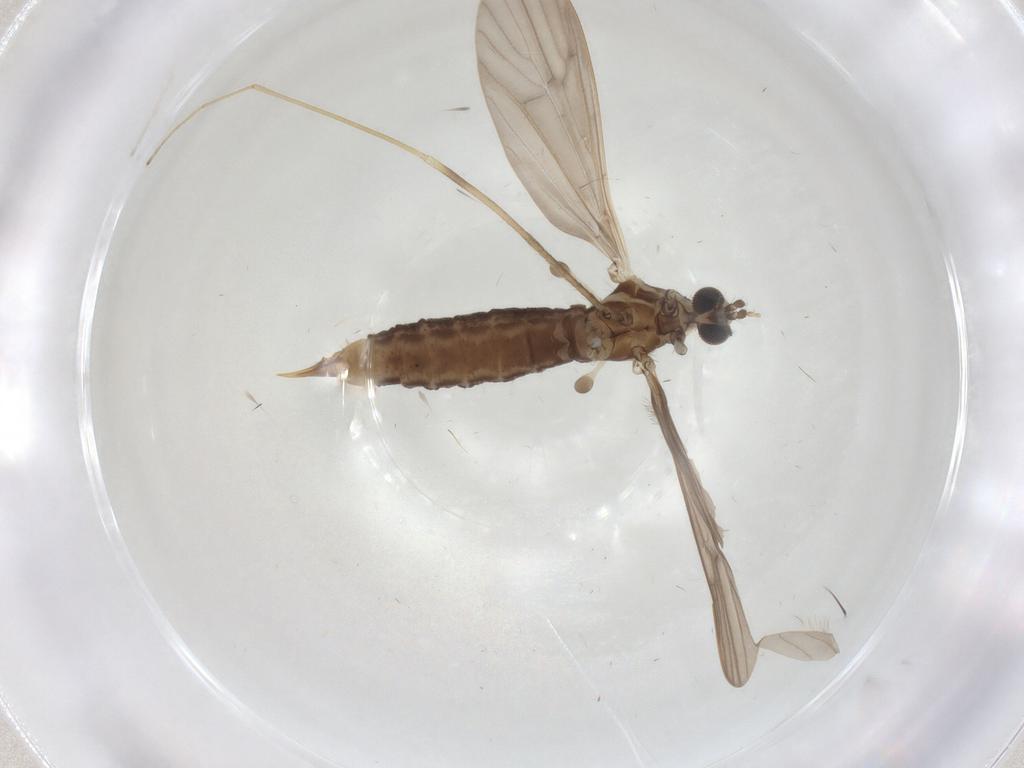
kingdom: Animalia
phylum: Arthropoda
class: Insecta
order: Diptera
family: Limoniidae
